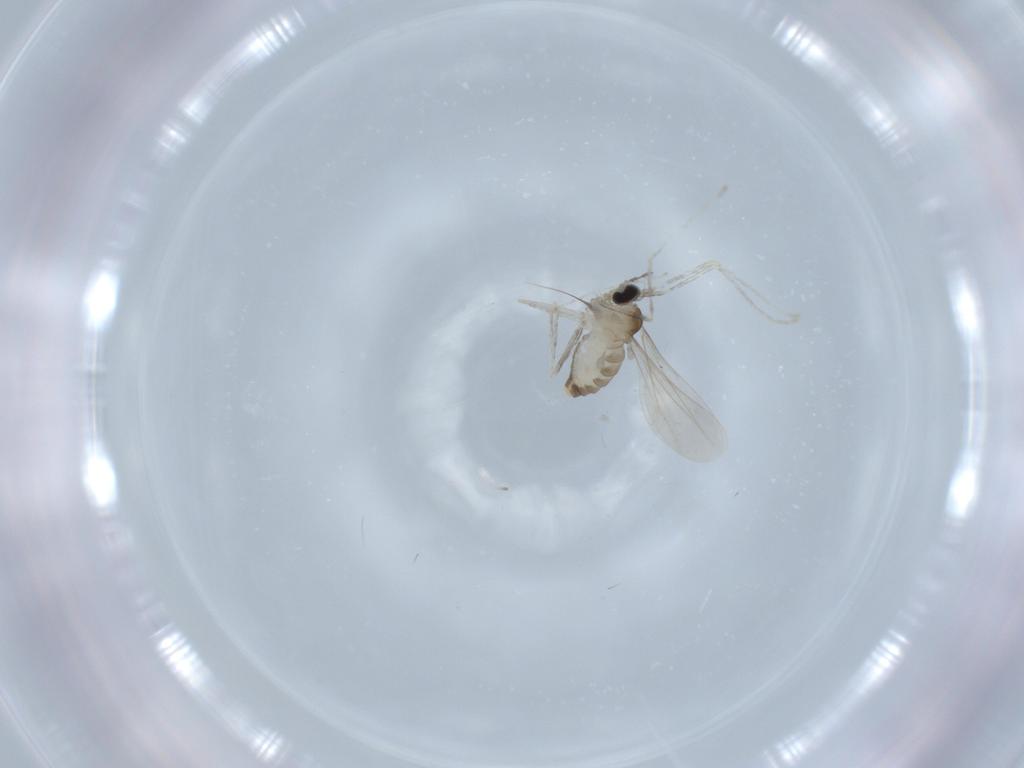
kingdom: Animalia
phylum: Arthropoda
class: Insecta
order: Diptera
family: Cecidomyiidae
